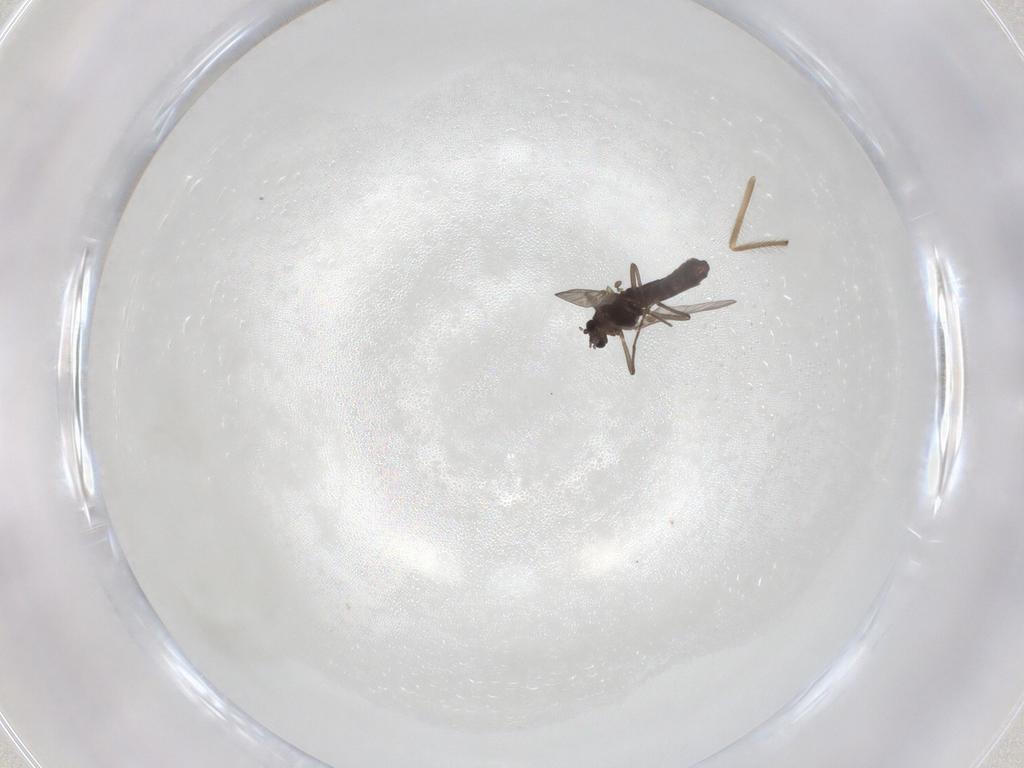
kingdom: Animalia
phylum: Arthropoda
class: Insecta
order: Diptera
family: Chironomidae
